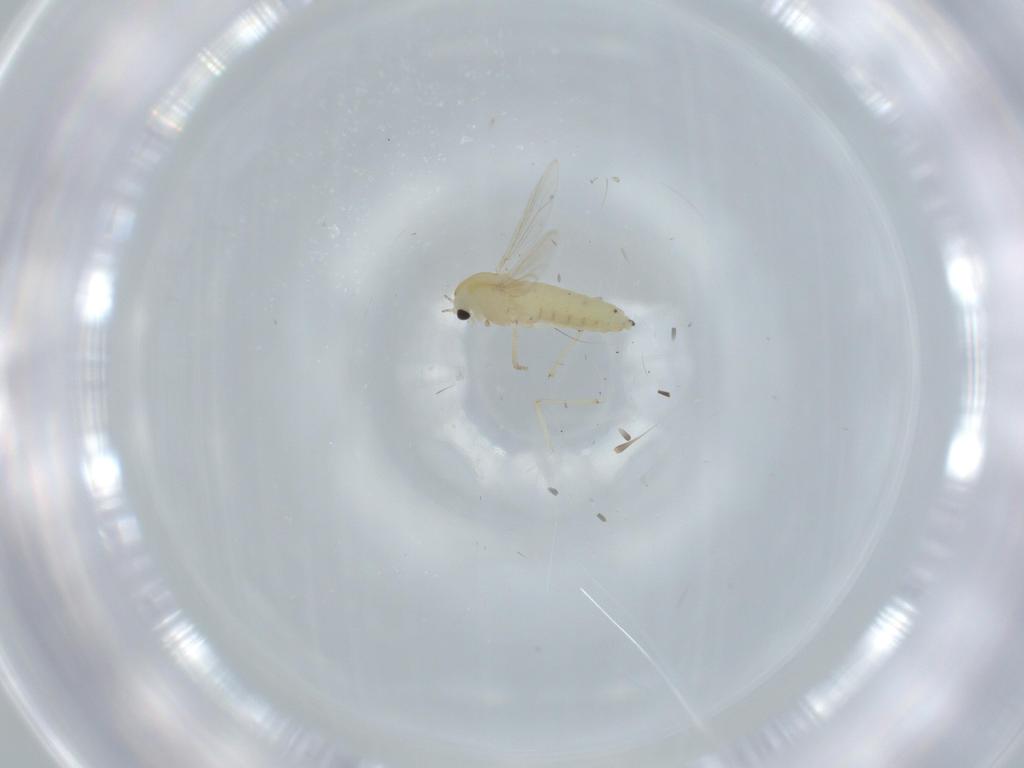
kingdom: Animalia
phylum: Arthropoda
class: Insecta
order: Diptera
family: Chironomidae
